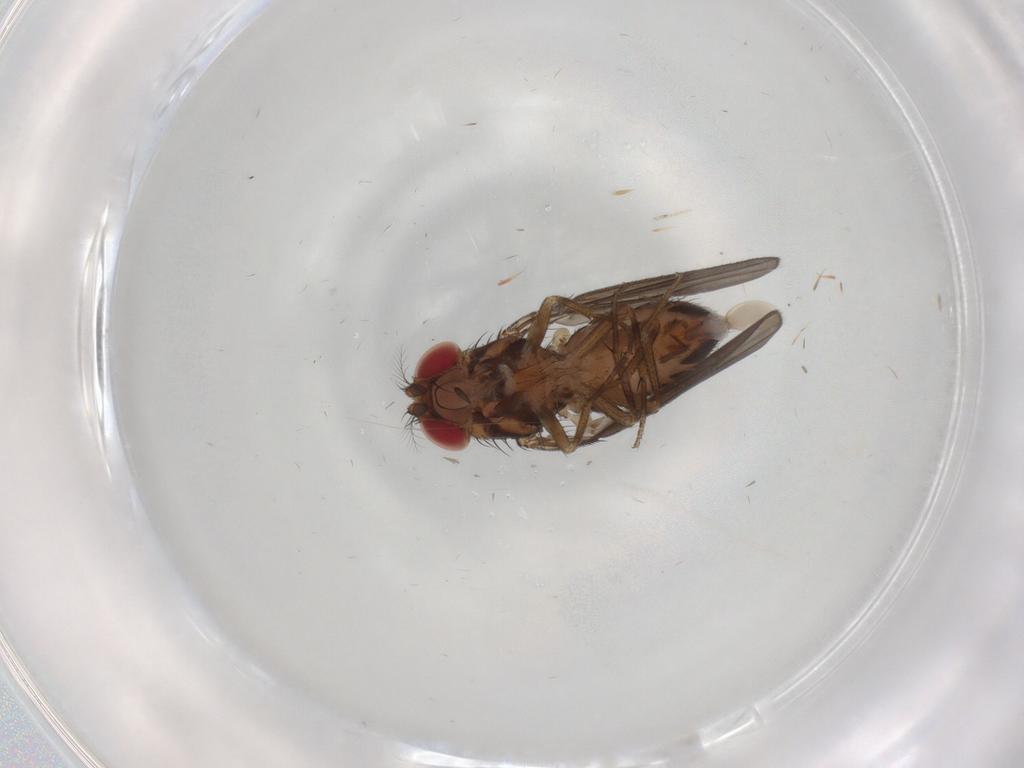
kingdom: Animalia
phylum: Arthropoda
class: Insecta
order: Diptera
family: Drosophilidae
